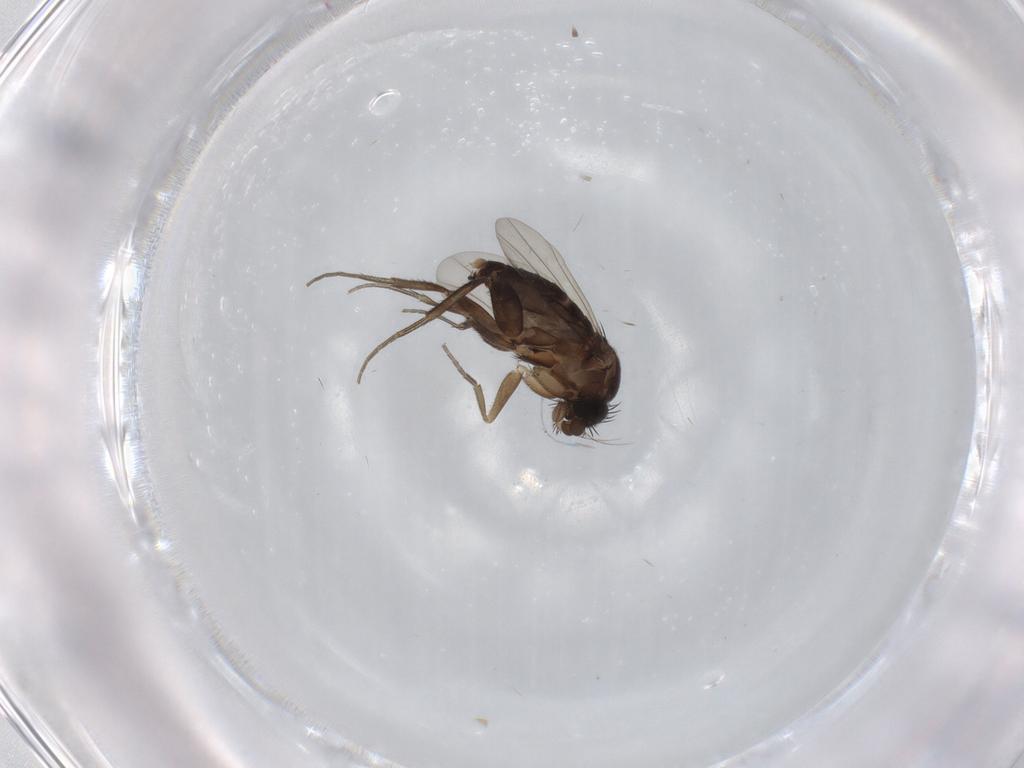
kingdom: Animalia
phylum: Arthropoda
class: Insecta
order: Diptera
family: Phoridae
